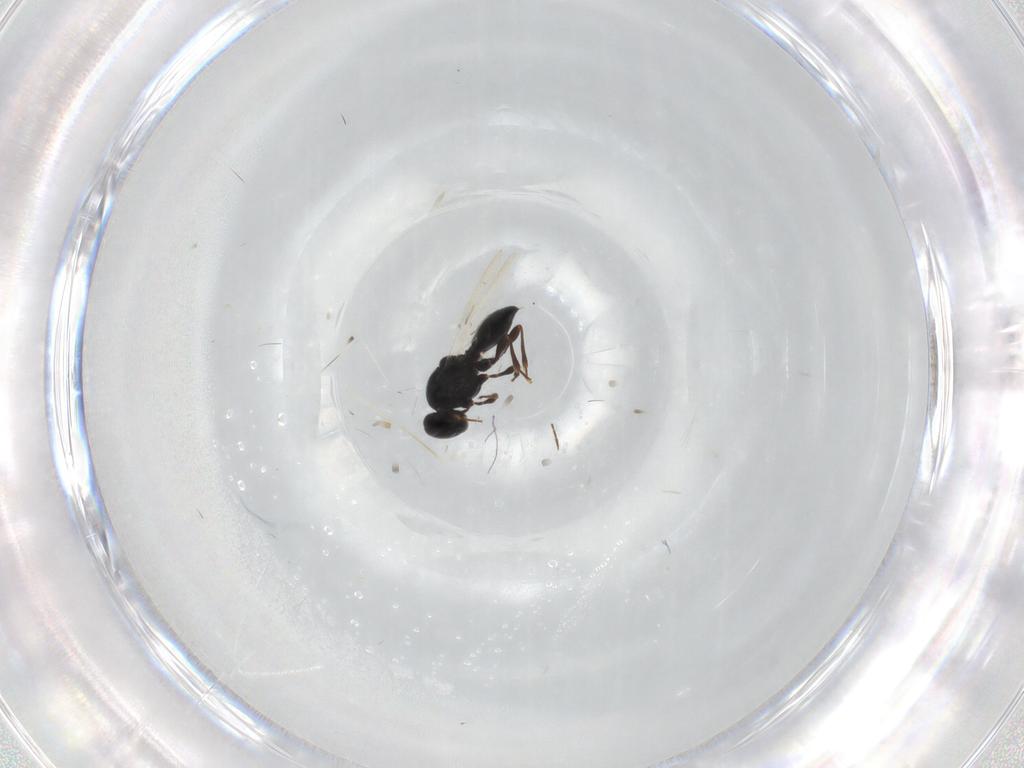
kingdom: Animalia
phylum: Arthropoda
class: Insecta
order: Diptera
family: Mythicomyiidae
